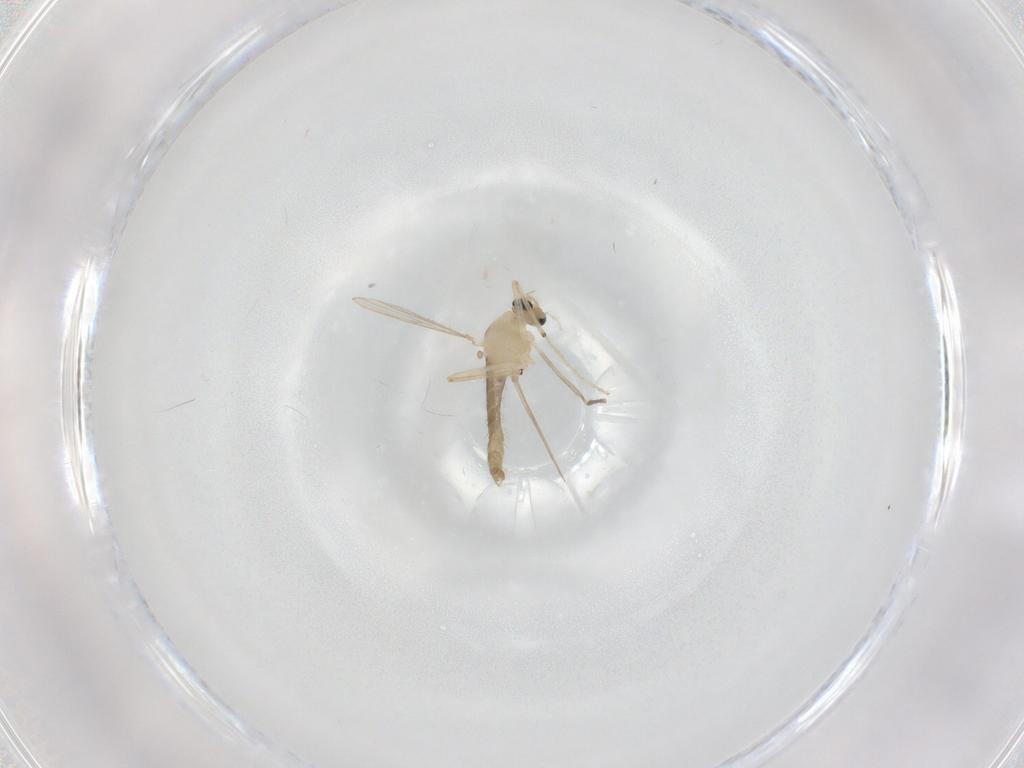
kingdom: Animalia
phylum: Arthropoda
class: Insecta
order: Diptera
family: Chironomidae
